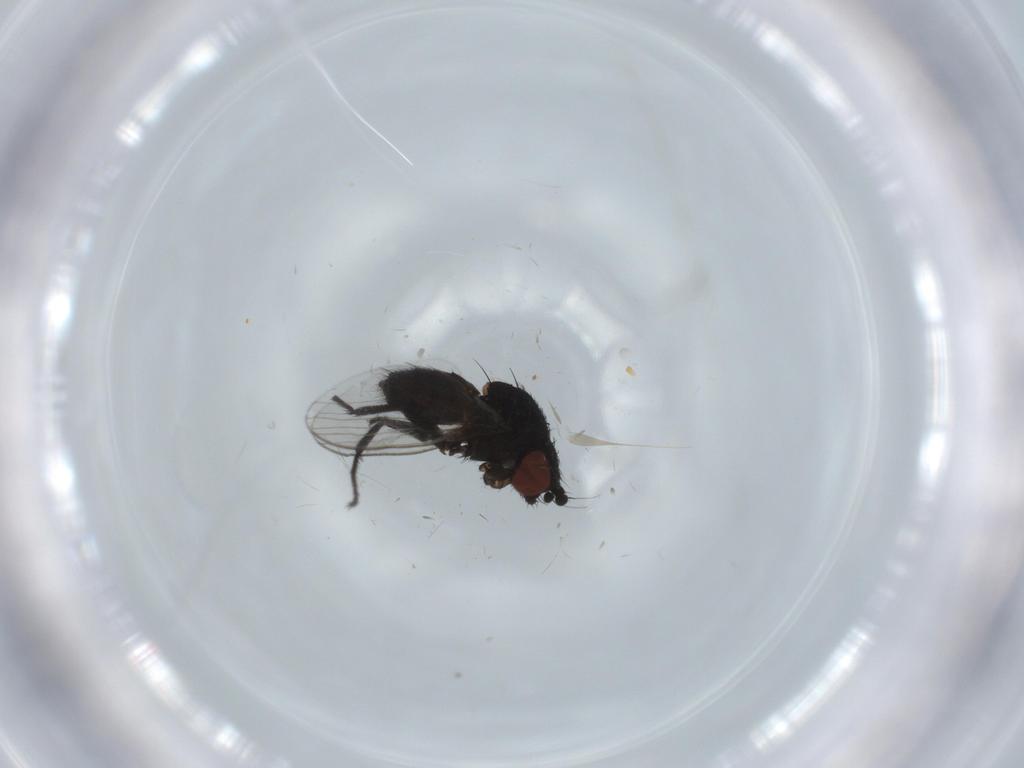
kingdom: Animalia
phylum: Arthropoda
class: Insecta
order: Diptera
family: Milichiidae
